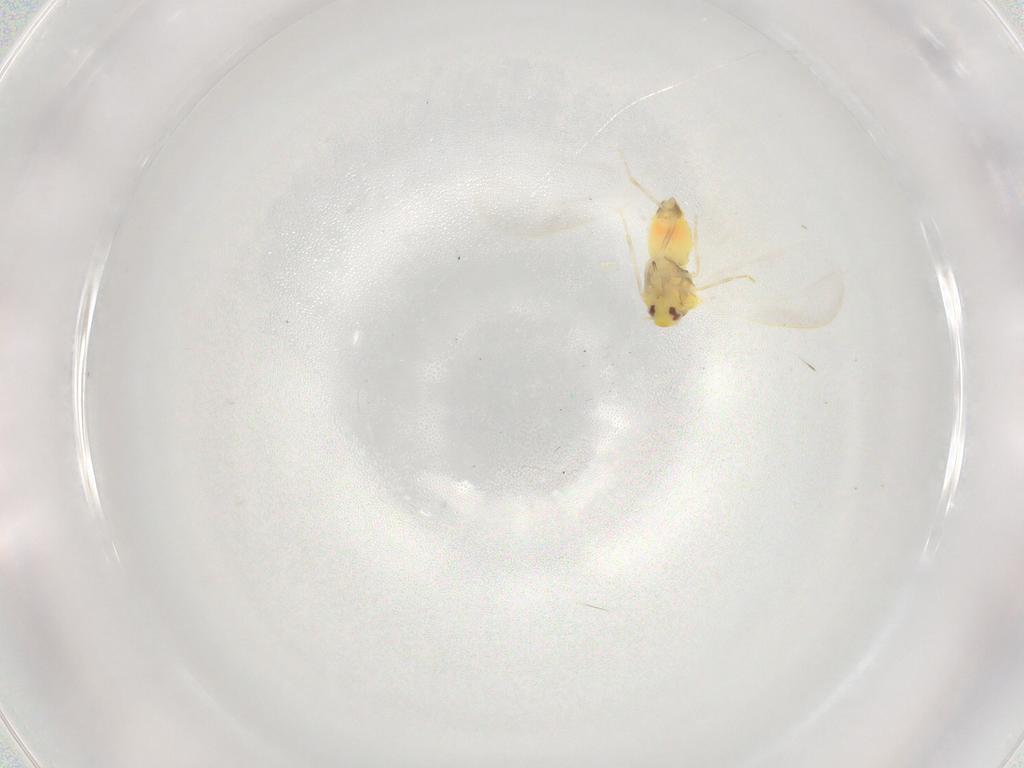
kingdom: Animalia
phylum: Arthropoda
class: Insecta
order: Hemiptera
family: Aleyrodidae
